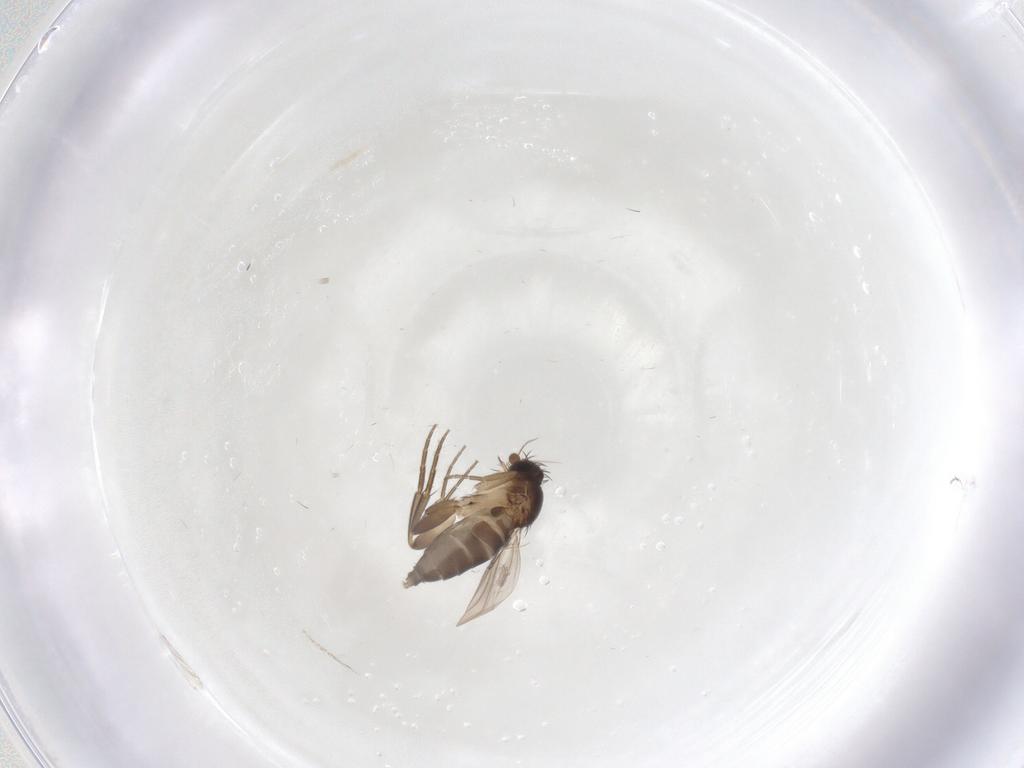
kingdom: Animalia
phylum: Arthropoda
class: Insecta
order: Diptera
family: Phoridae
